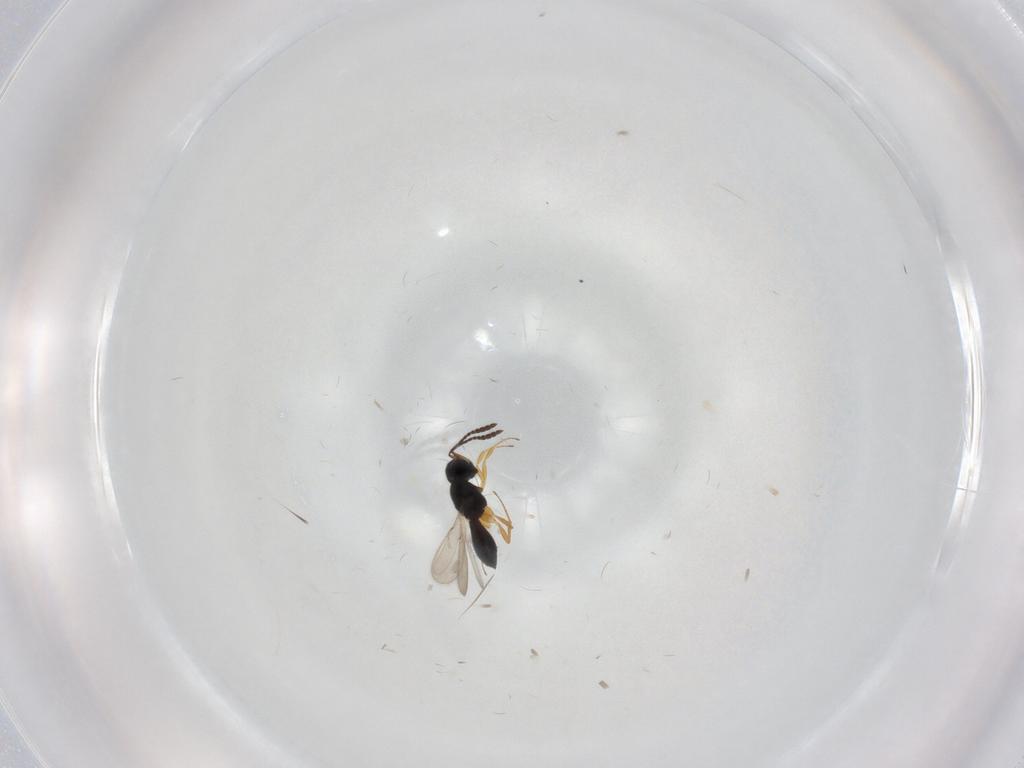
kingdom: Animalia
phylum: Arthropoda
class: Insecta
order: Hymenoptera
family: Scelionidae
